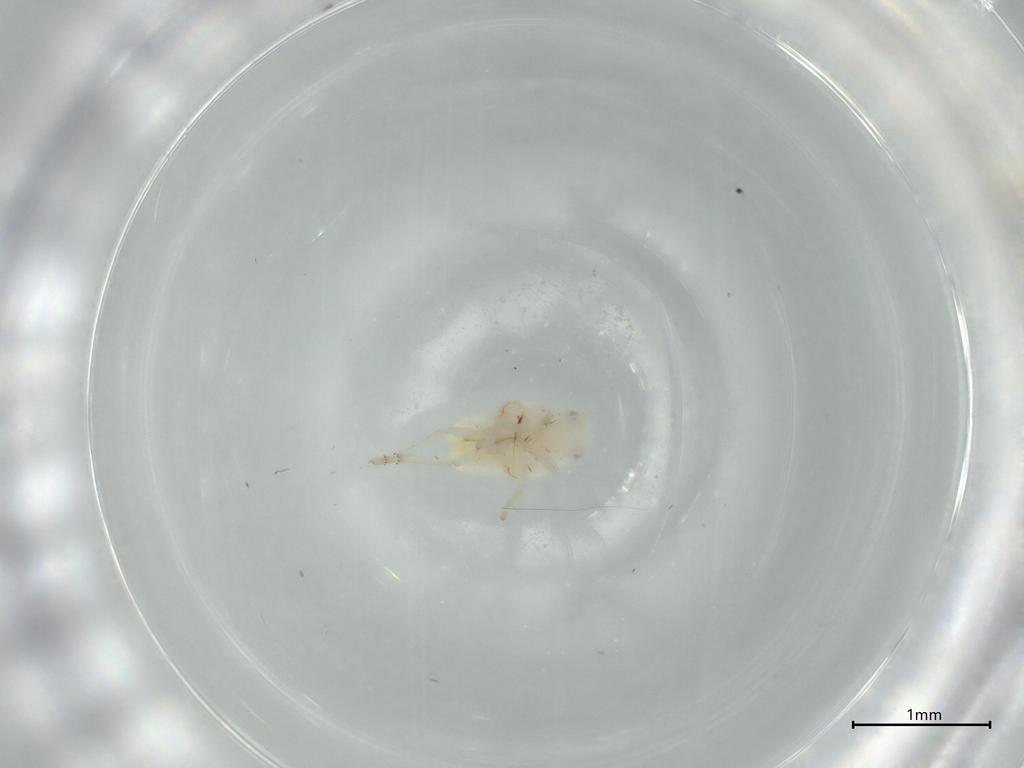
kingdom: Animalia
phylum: Arthropoda
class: Insecta
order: Hemiptera
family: Flatidae
